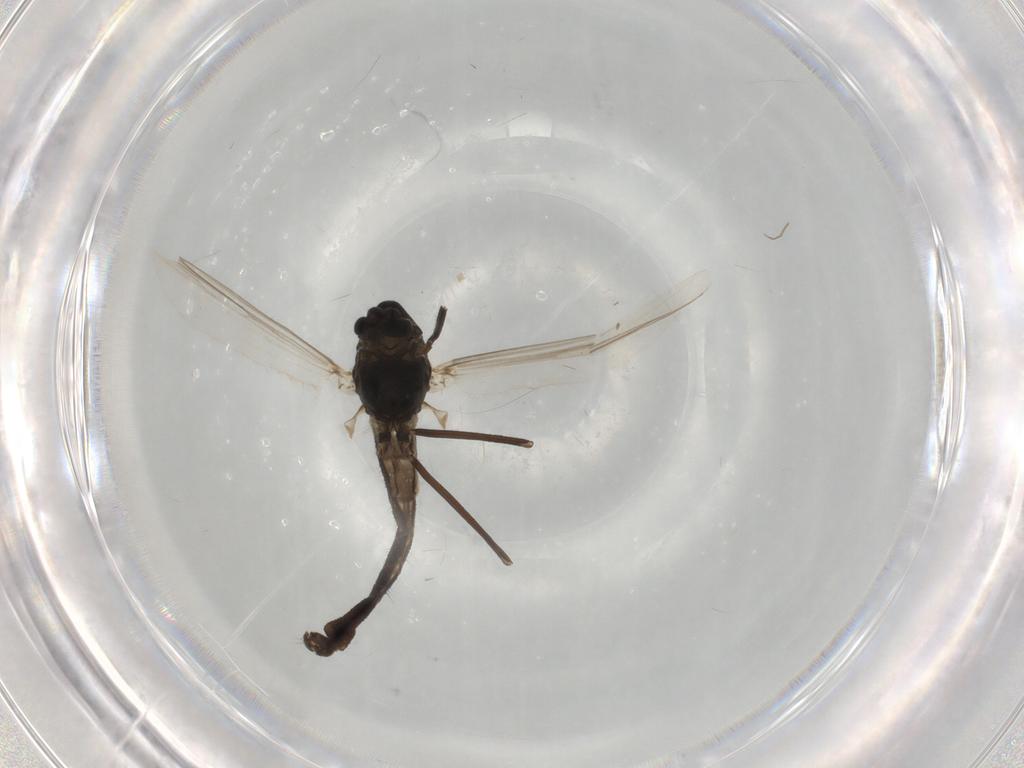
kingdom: Animalia
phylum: Arthropoda
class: Insecta
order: Diptera
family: Chironomidae
